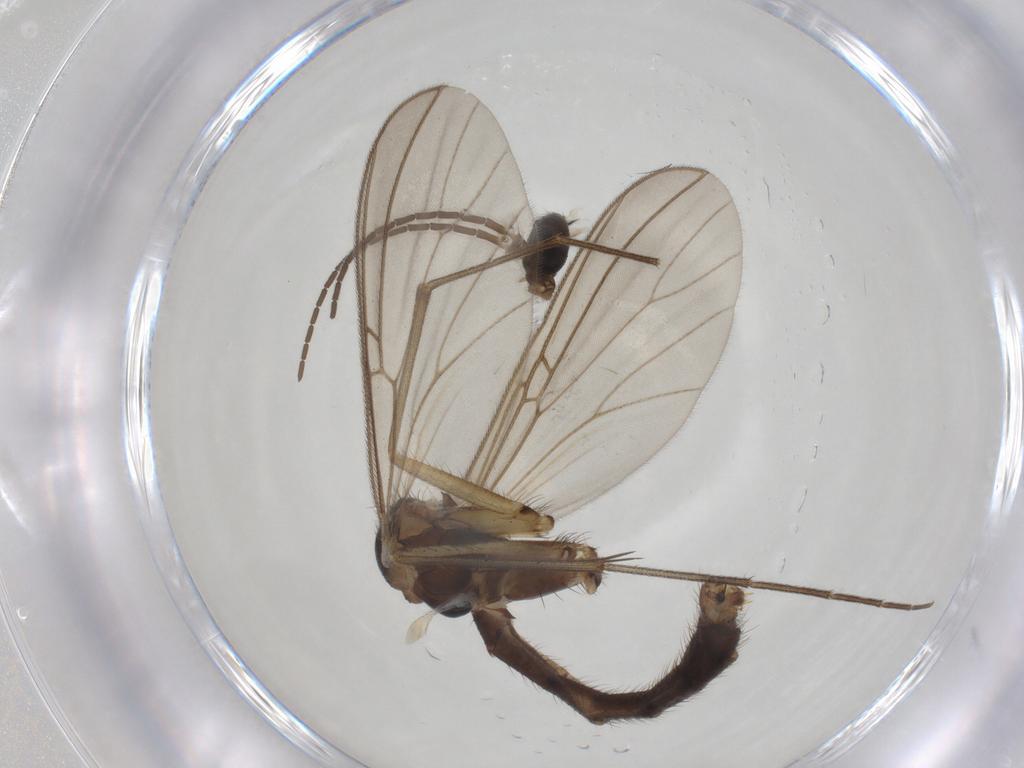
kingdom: Animalia
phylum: Arthropoda
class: Insecta
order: Diptera
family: Mycetophilidae
